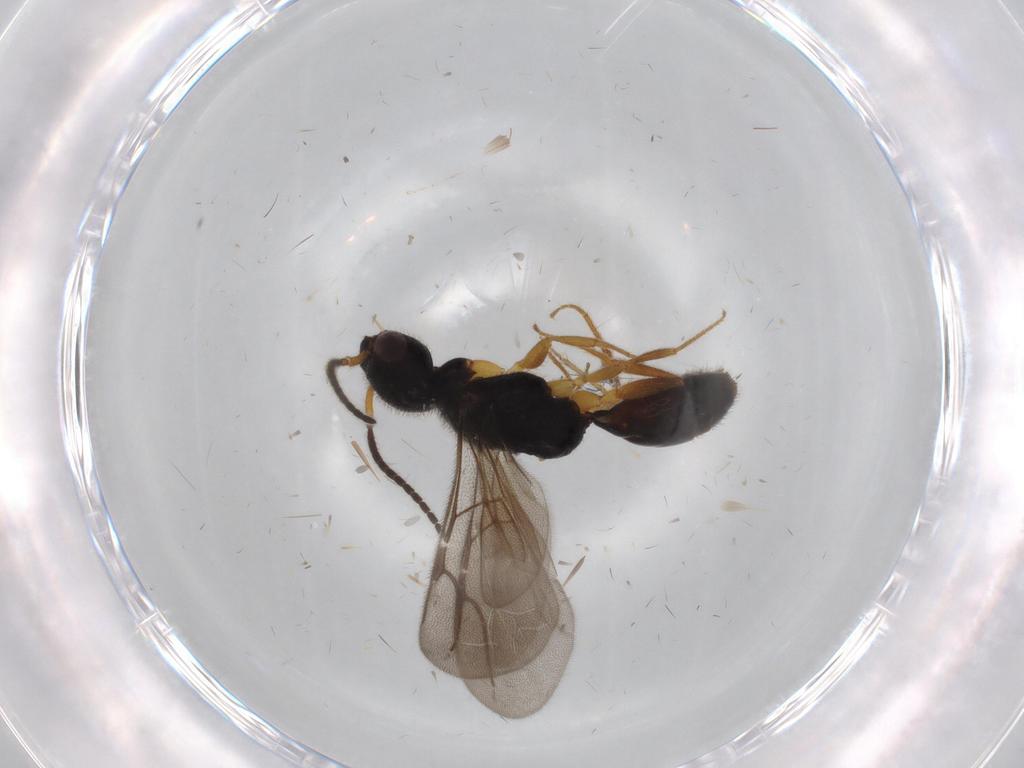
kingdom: Animalia
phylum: Arthropoda
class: Insecta
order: Hymenoptera
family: Bethylidae
